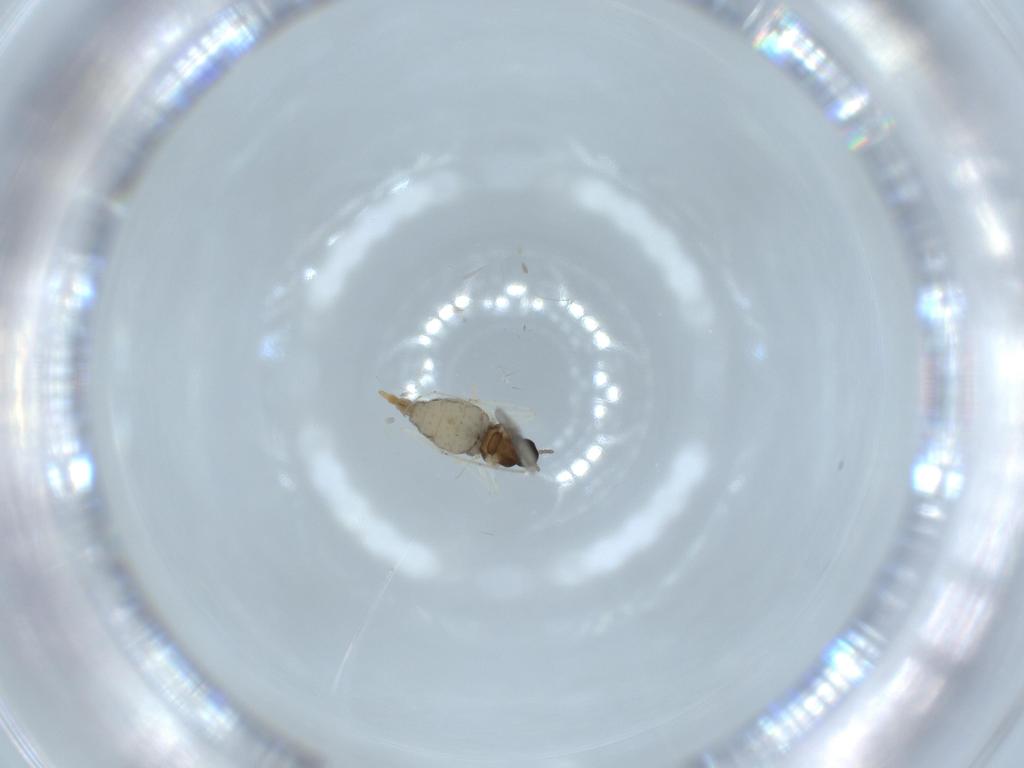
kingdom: Animalia
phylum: Arthropoda
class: Insecta
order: Diptera
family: Cecidomyiidae
